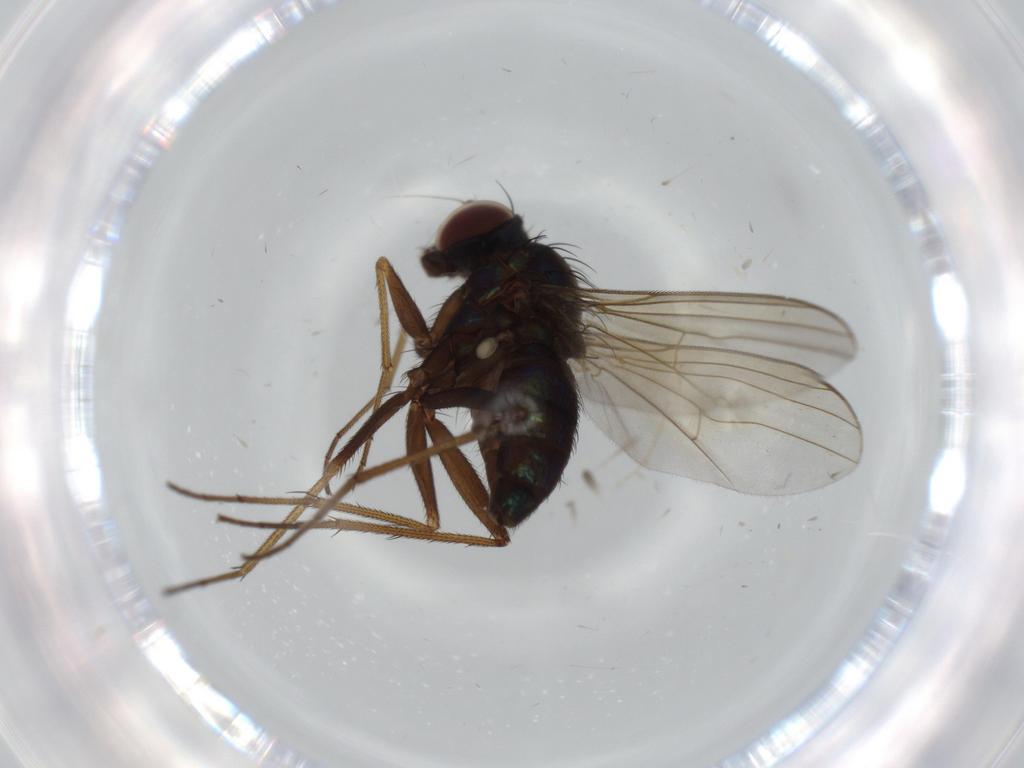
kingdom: Animalia
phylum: Arthropoda
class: Insecta
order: Diptera
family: Dolichopodidae
